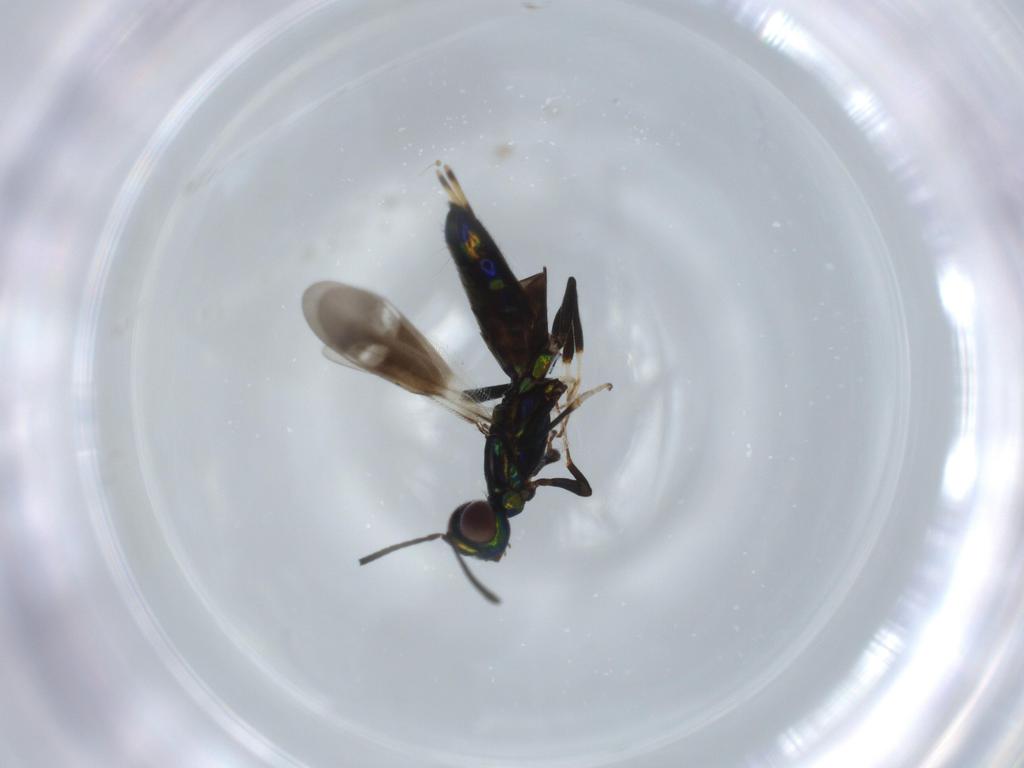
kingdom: Animalia
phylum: Arthropoda
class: Insecta
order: Hymenoptera
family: Eupelmidae
